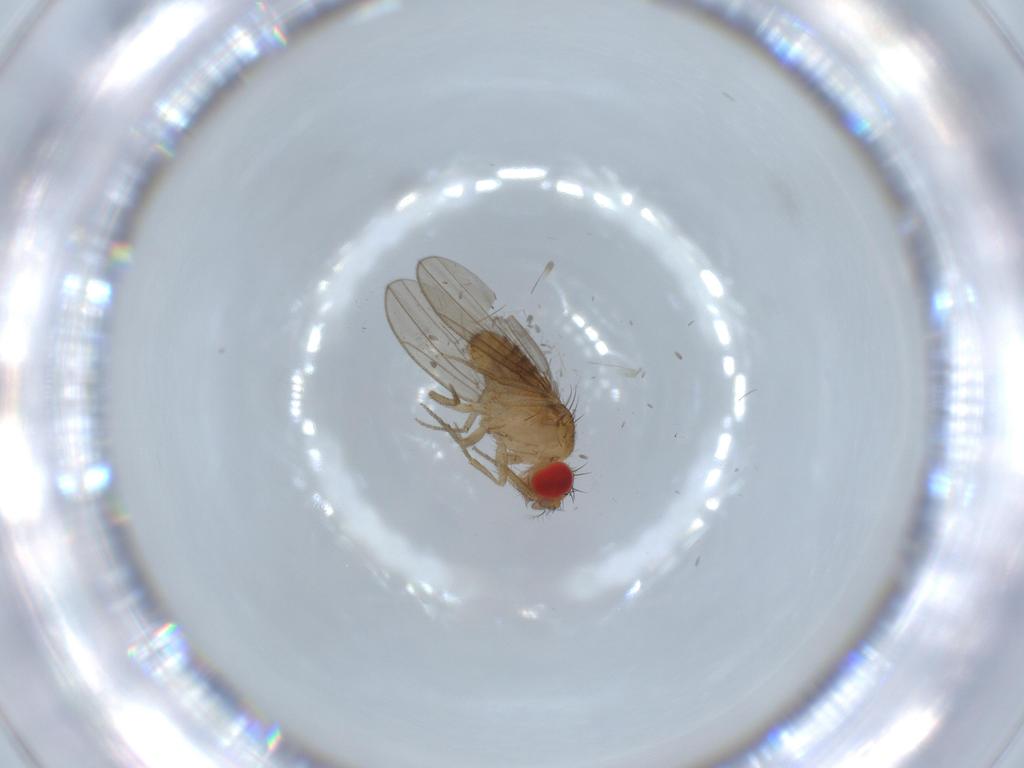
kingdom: Animalia
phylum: Arthropoda
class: Insecta
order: Diptera
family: Drosophilidae
